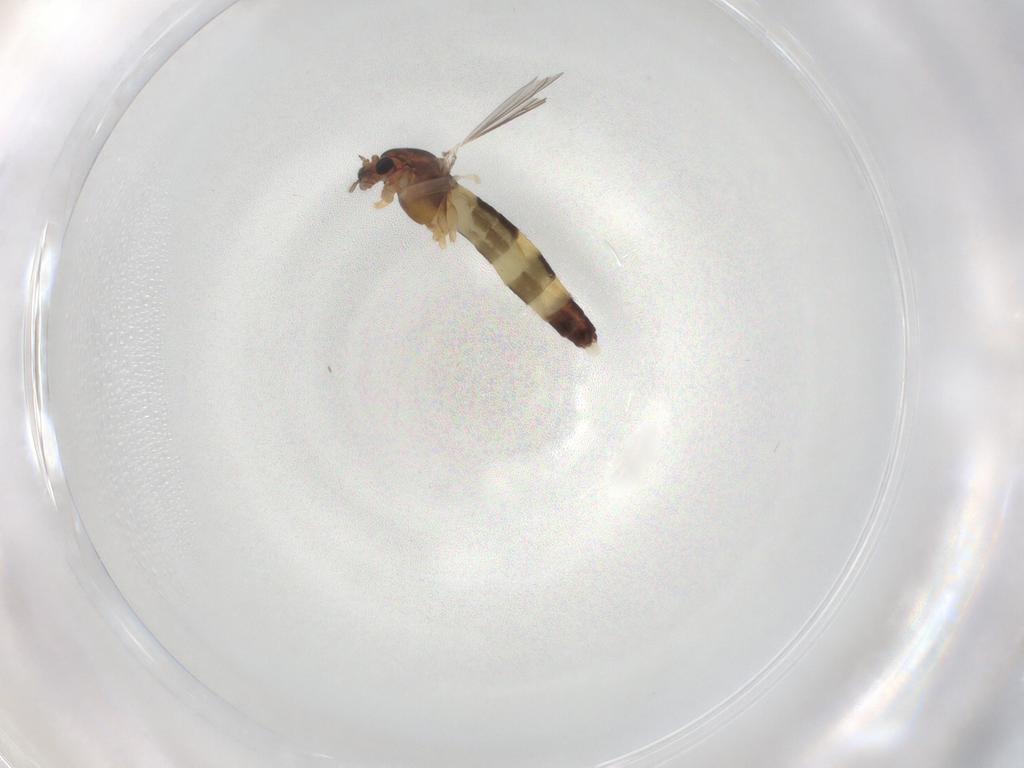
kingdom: Animalia
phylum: Arthropoda
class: Insecta
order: Diptera
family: Chironomidae
